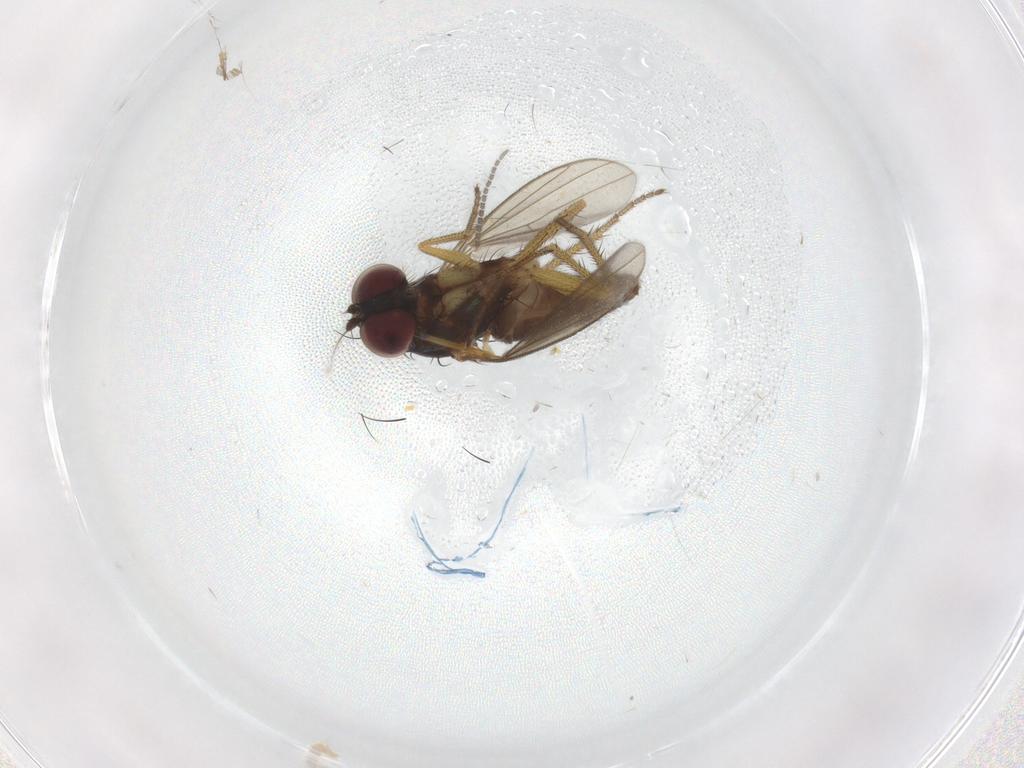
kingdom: Animalia
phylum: Arthropoda
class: Insecta
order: Diptera
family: Sciaridae
